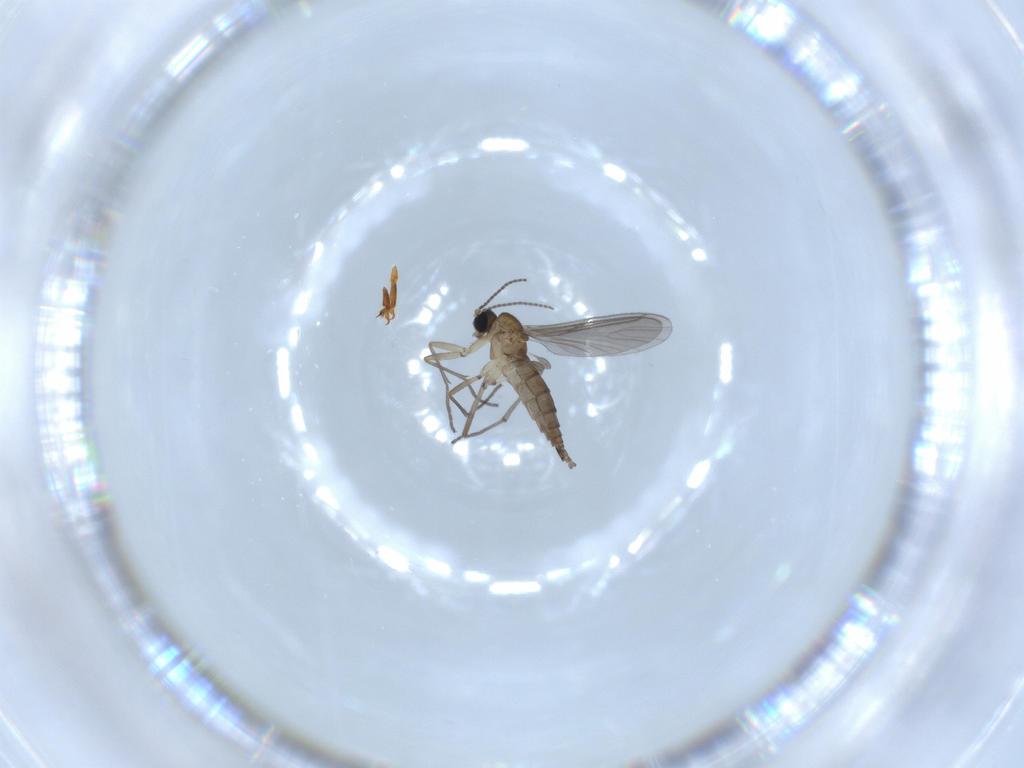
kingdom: Animalia
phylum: Arthropoda
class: Insecta
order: Diptera
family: Sciaridae
